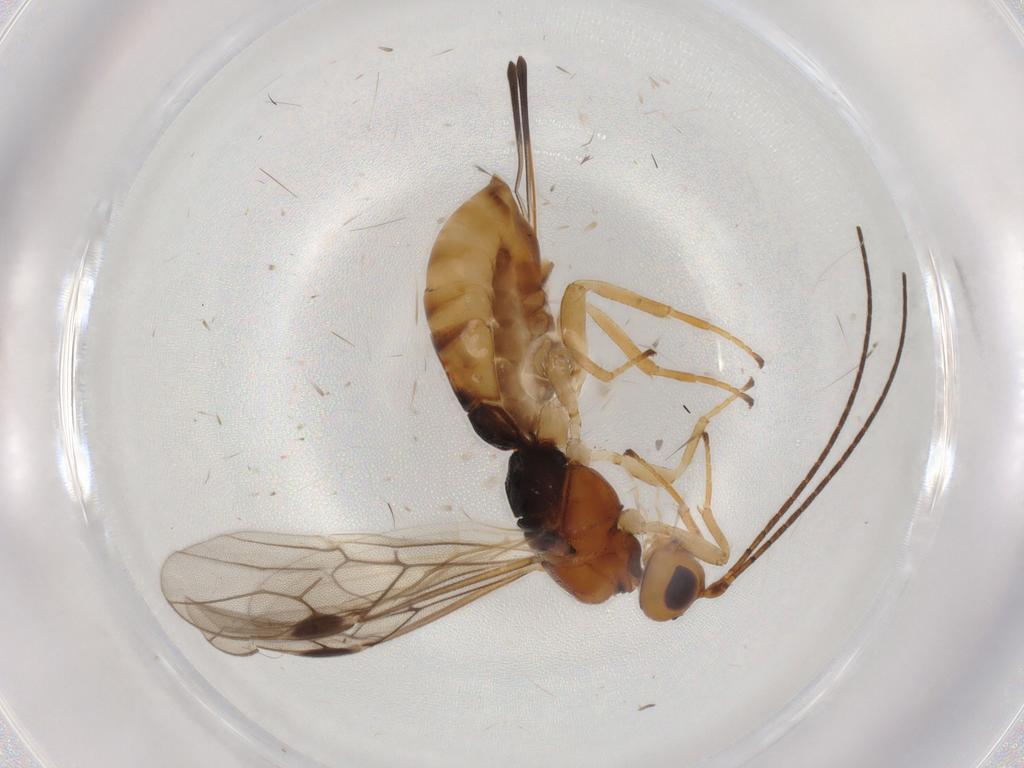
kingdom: Animalia
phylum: Arthropoda
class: Insecta
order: Hymenoptera
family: Braconidae
